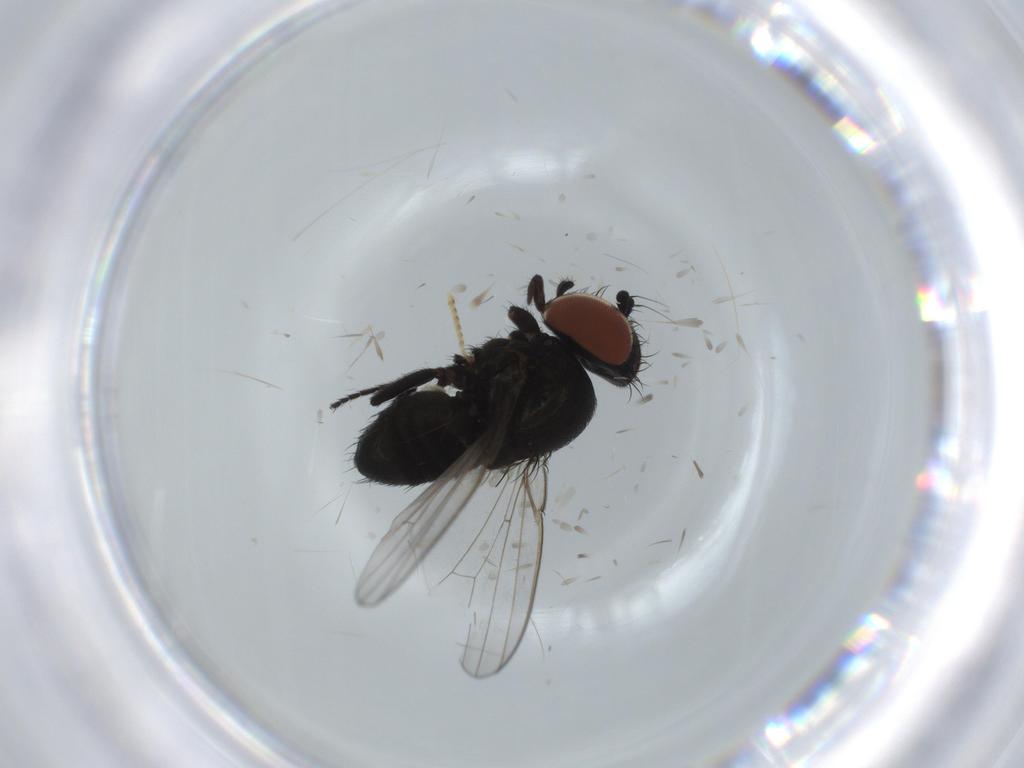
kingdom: Animalia
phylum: Arthropoda
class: Insecta
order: Diptera
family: Milichiidae
